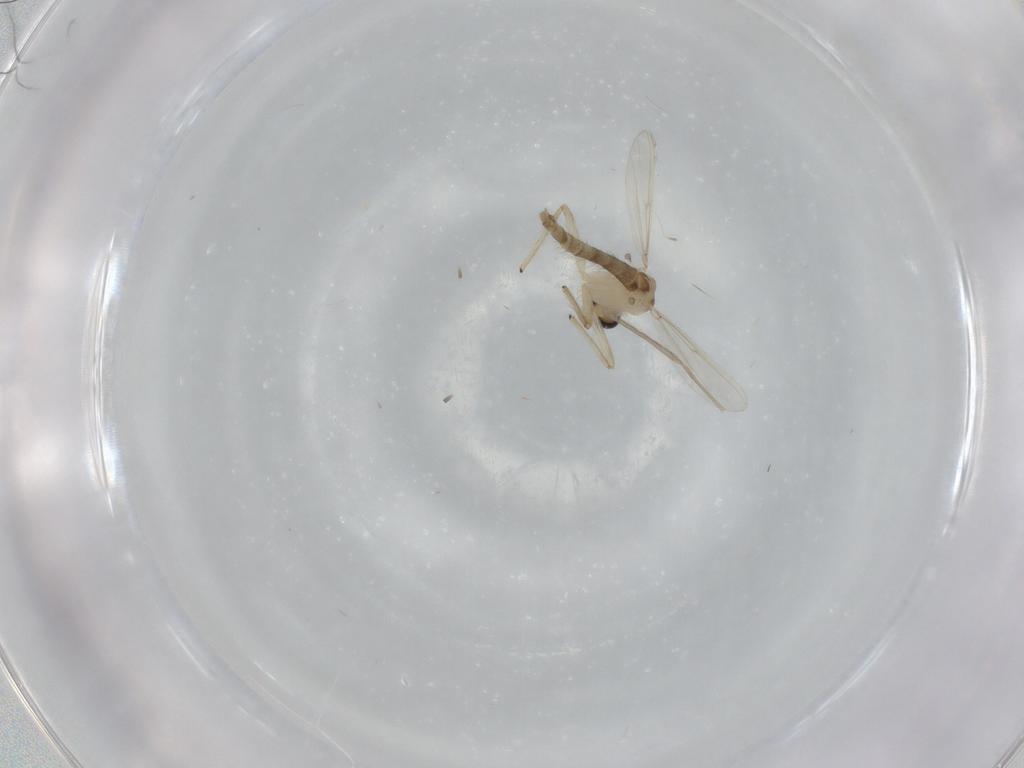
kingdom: Animalia
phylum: Arthropoda
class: Insecta
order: Diptera
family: Chironomidae
